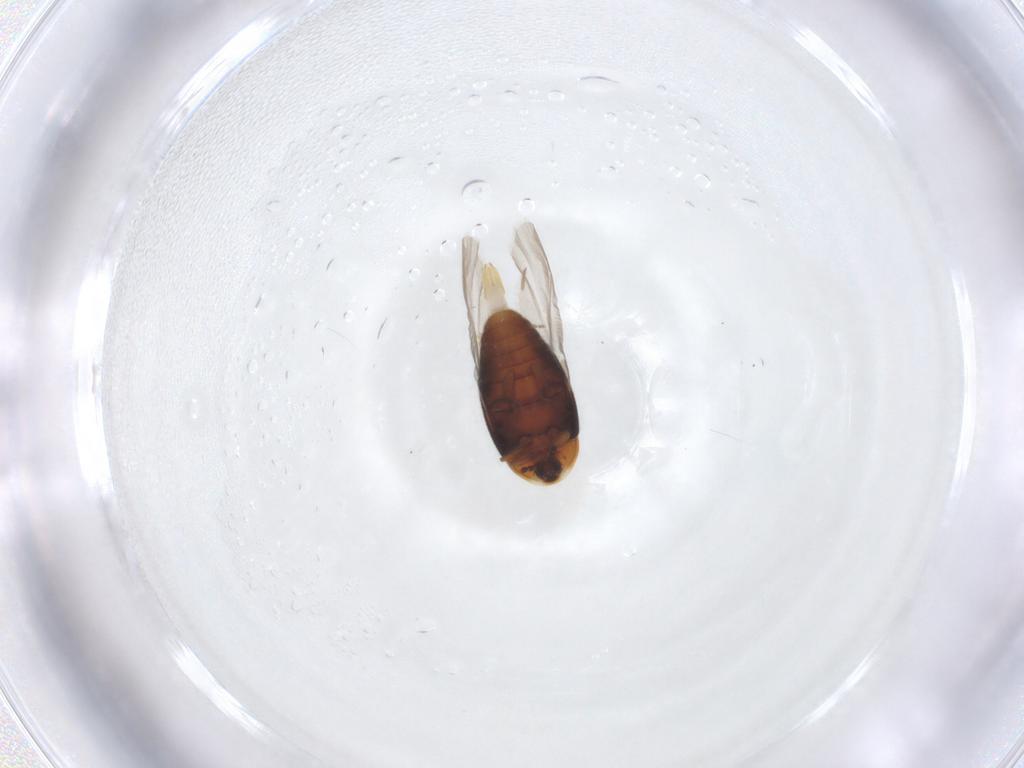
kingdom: Animalia
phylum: Arthropoda
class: Insecta
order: Coleoptera
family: Corylophidae
